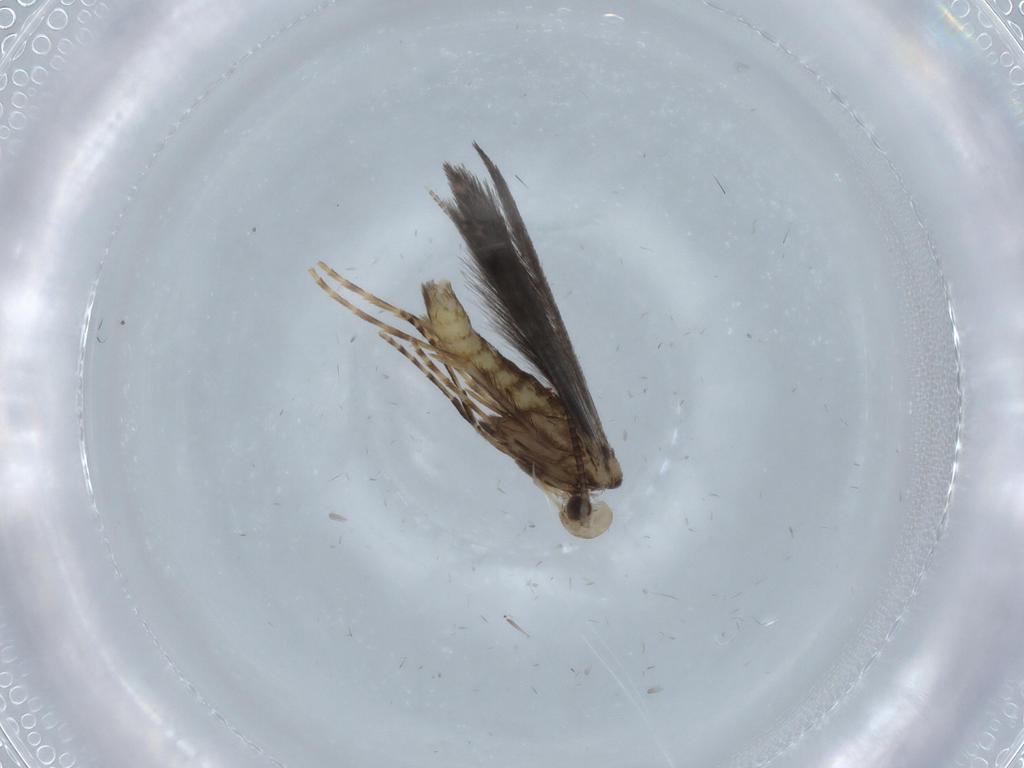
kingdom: Animalia
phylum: Arthropoda
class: Insecta
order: Lepidoptera
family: Gracillariidae
